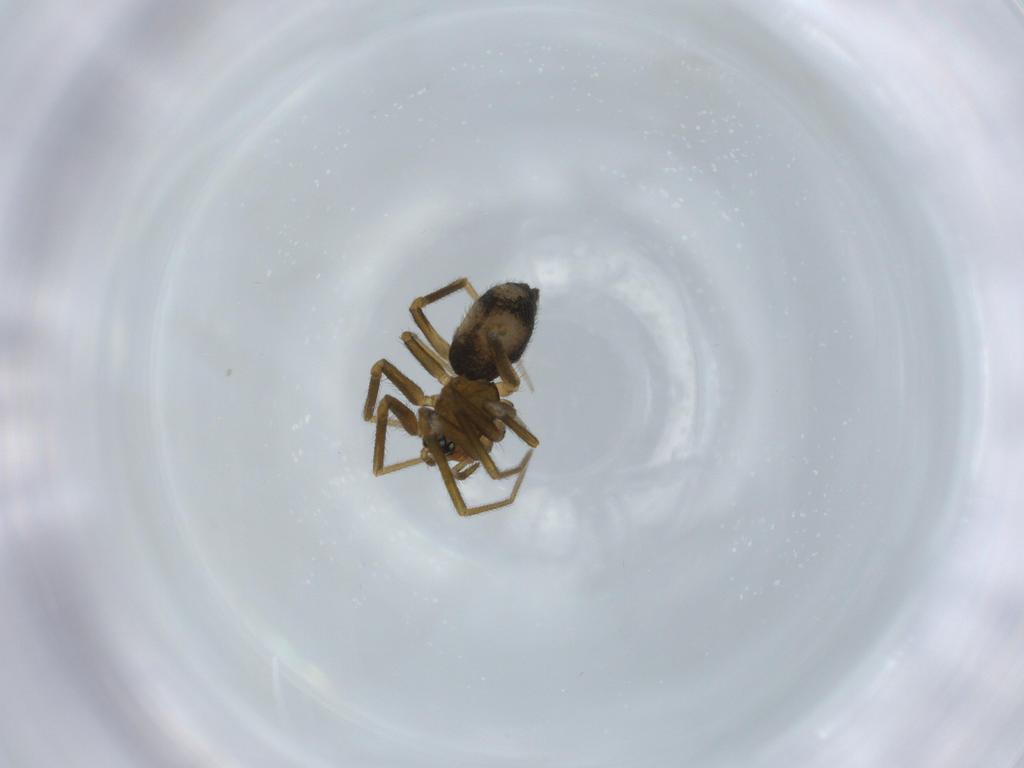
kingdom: Animalia
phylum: Arthropoda
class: Arachnida
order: Araneae
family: Linyphiidae
